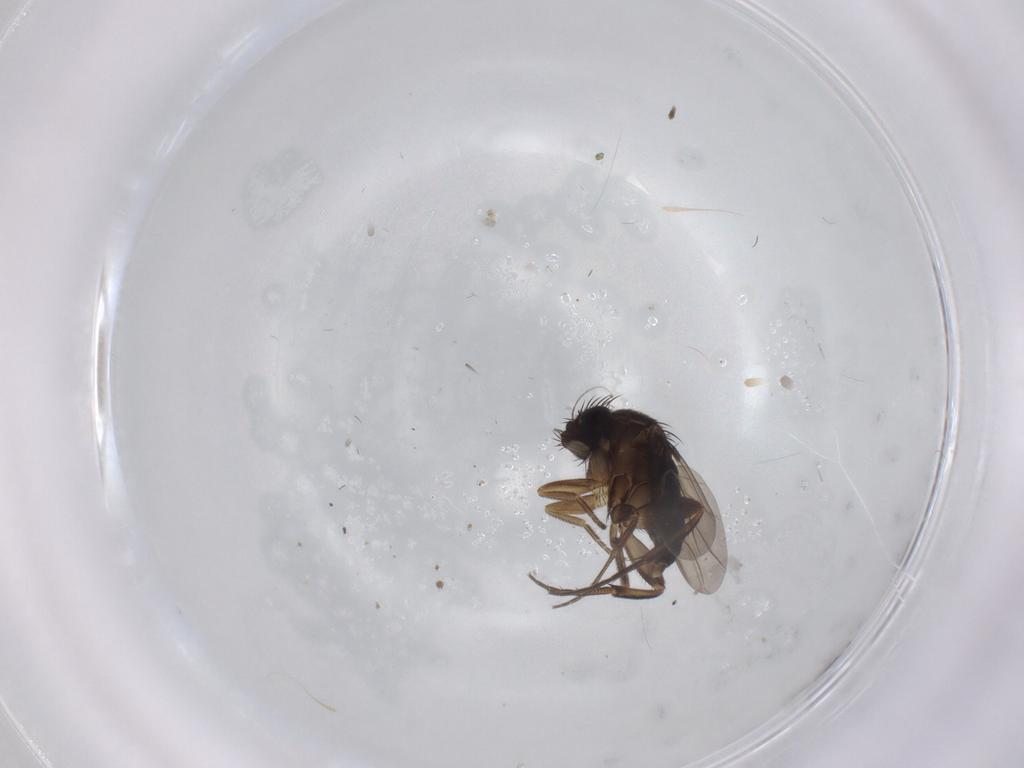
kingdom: Animalia
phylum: Arthropoda
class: Insecta
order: Diptera
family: Phoridae
